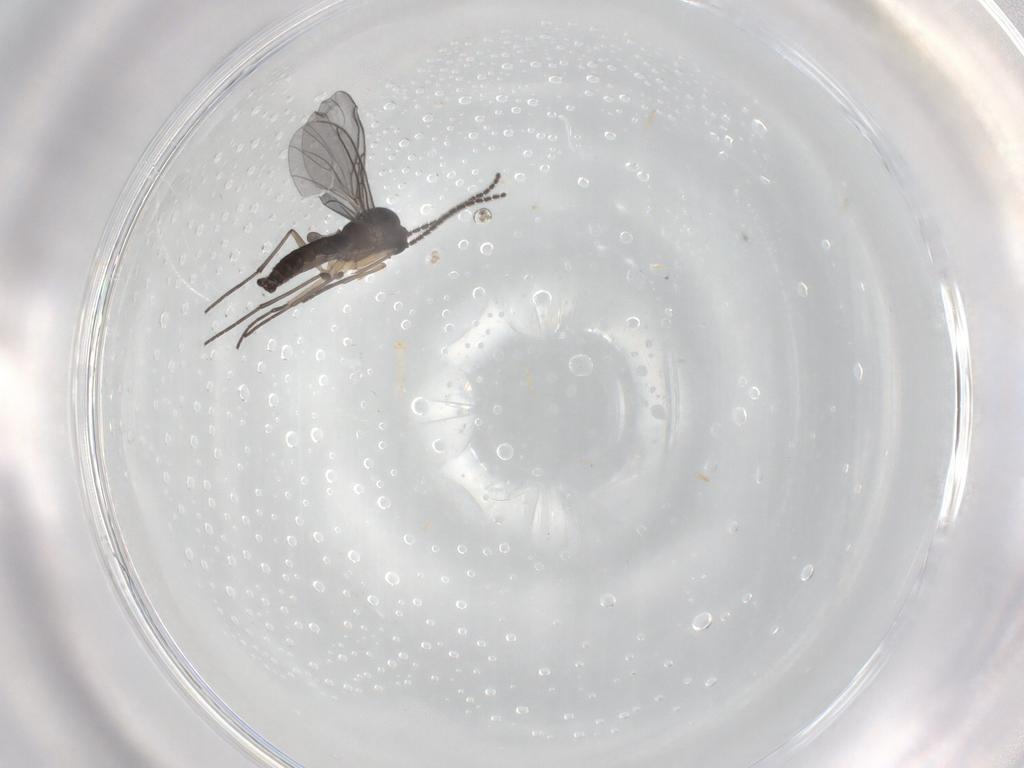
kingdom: Animalia
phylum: Arthropoda
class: Insecta
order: Diptera
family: Sciaridae
